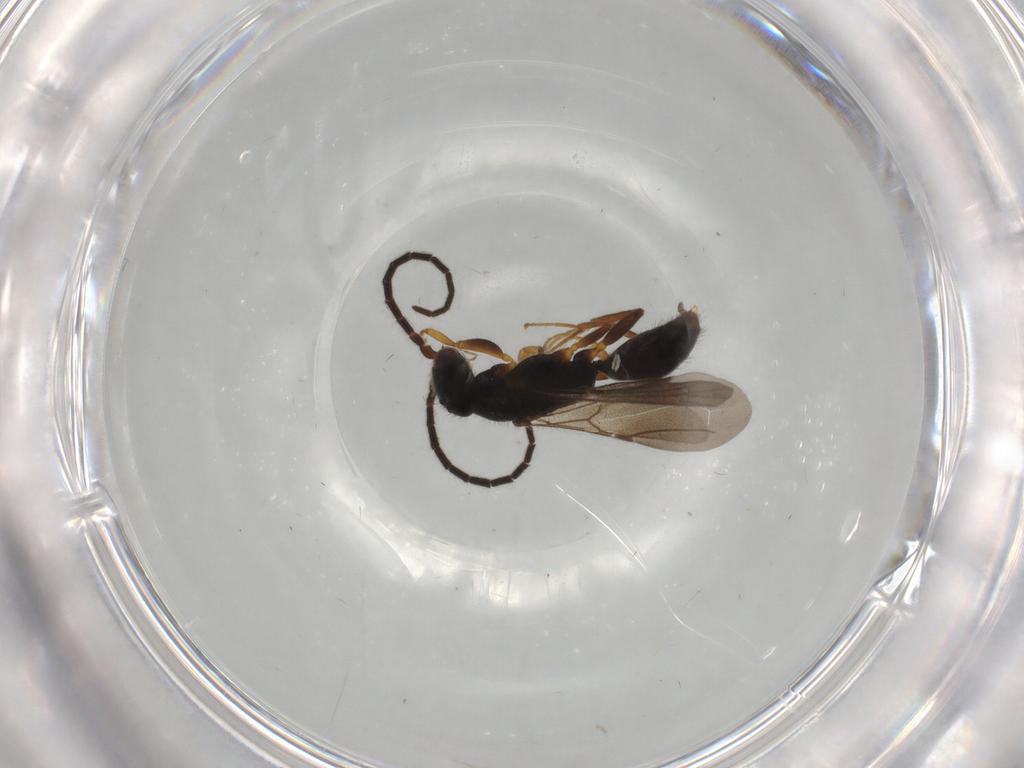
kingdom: Animalia
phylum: Arthropoda
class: Insecta
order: Hymenoptera
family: Bethylidae
